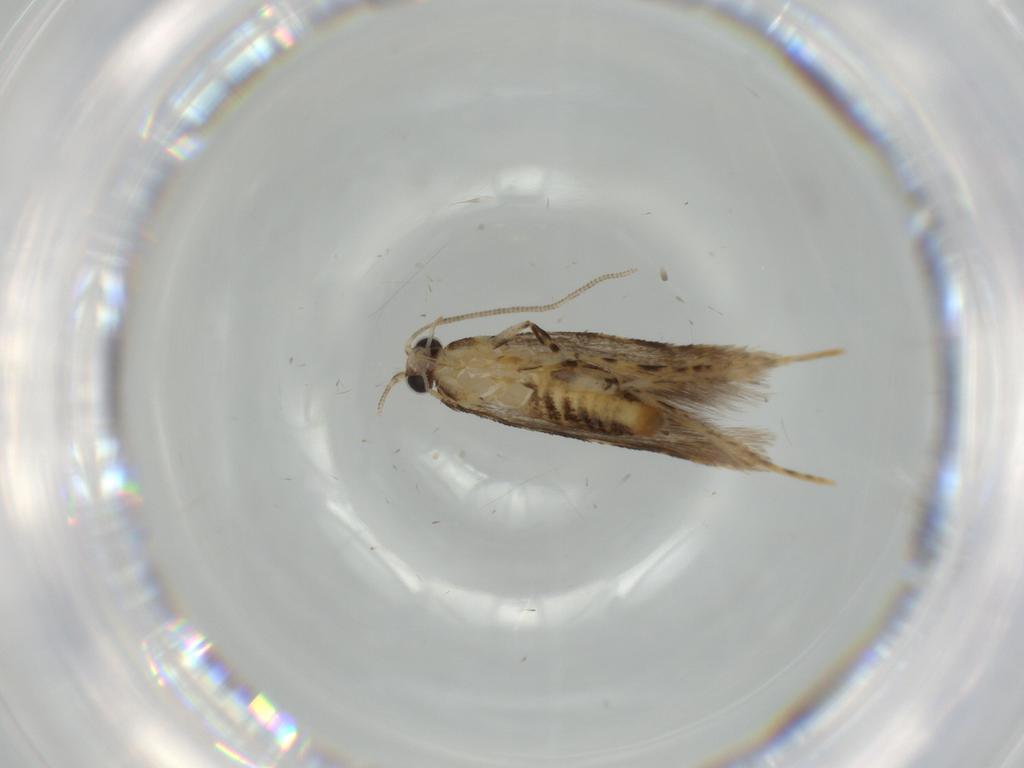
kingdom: Animalia
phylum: Arthropoda
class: Insecta
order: Lepidoptera
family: Tineidae
